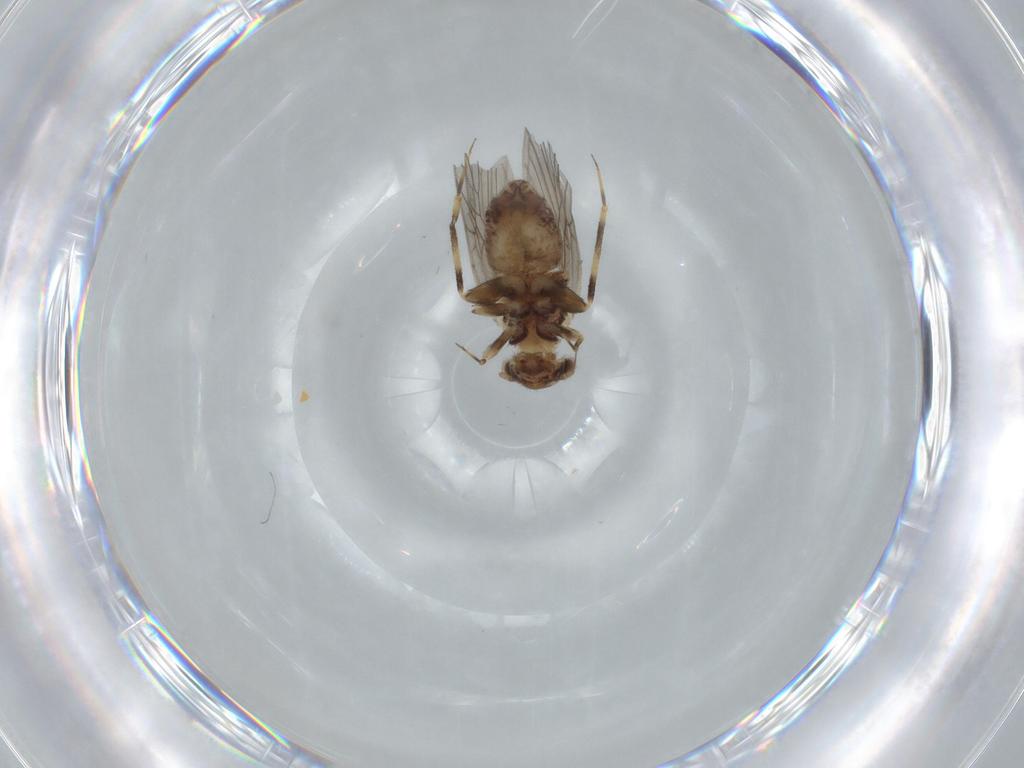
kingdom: Animalia
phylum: Arthropoda
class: Insecta
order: Psocodea
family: Lepidopsocidae
